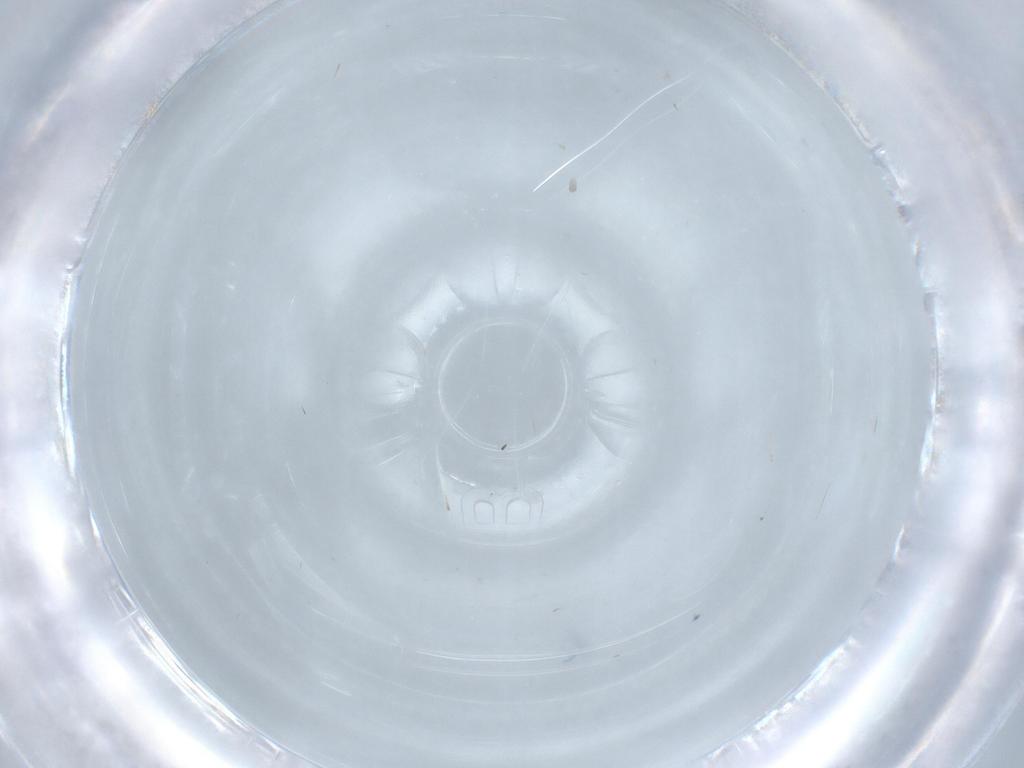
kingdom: Animalia
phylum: Arthropoda
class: Insecta
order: Diptera
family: Cecidomyiidae
